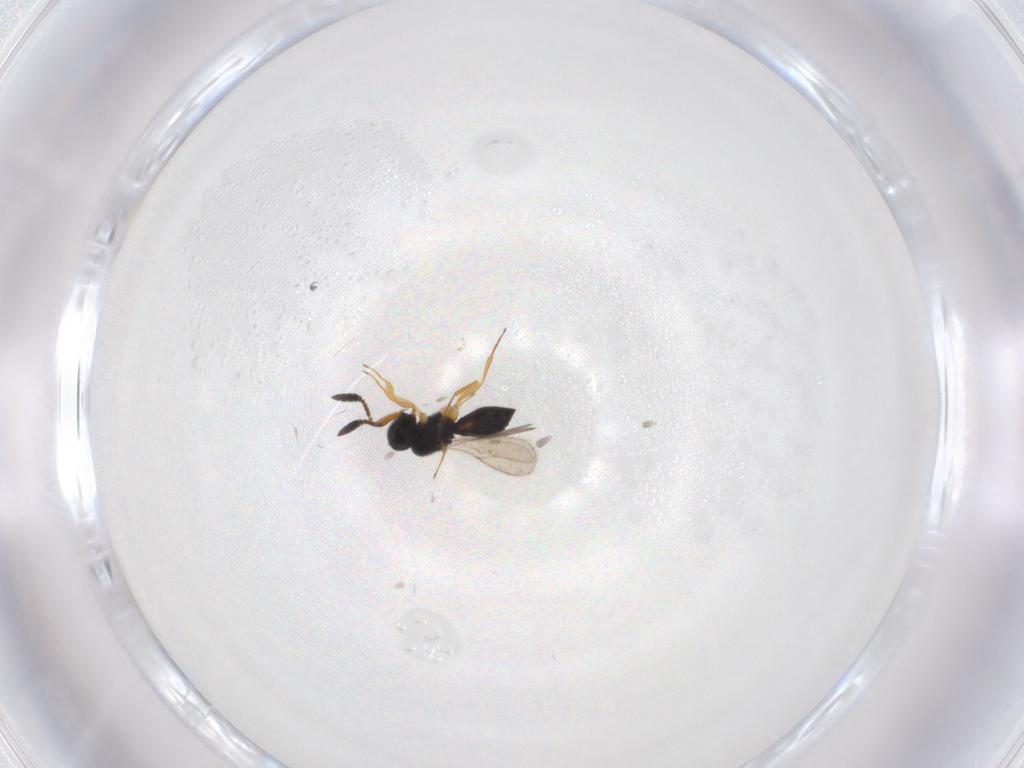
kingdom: Animalia
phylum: Arthropoda
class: Insecta
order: Hymenoptera
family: Scelionidae
